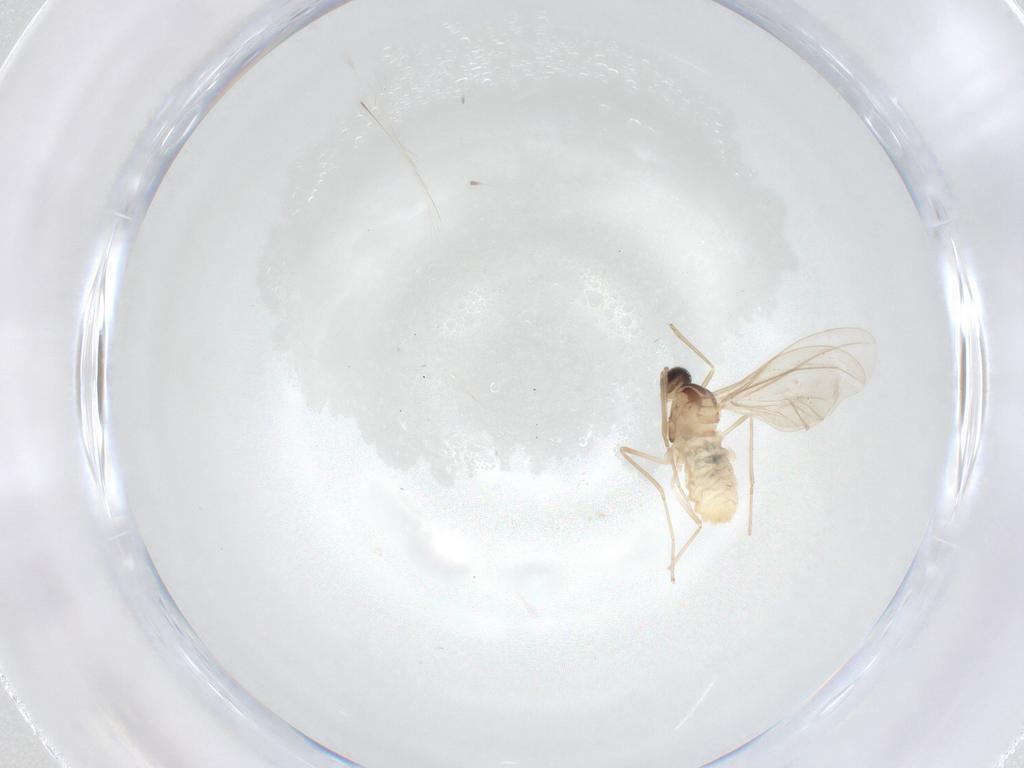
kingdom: Animalia
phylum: Arthropoda
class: Insecta
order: Diptera
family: Cecidomyiidae
